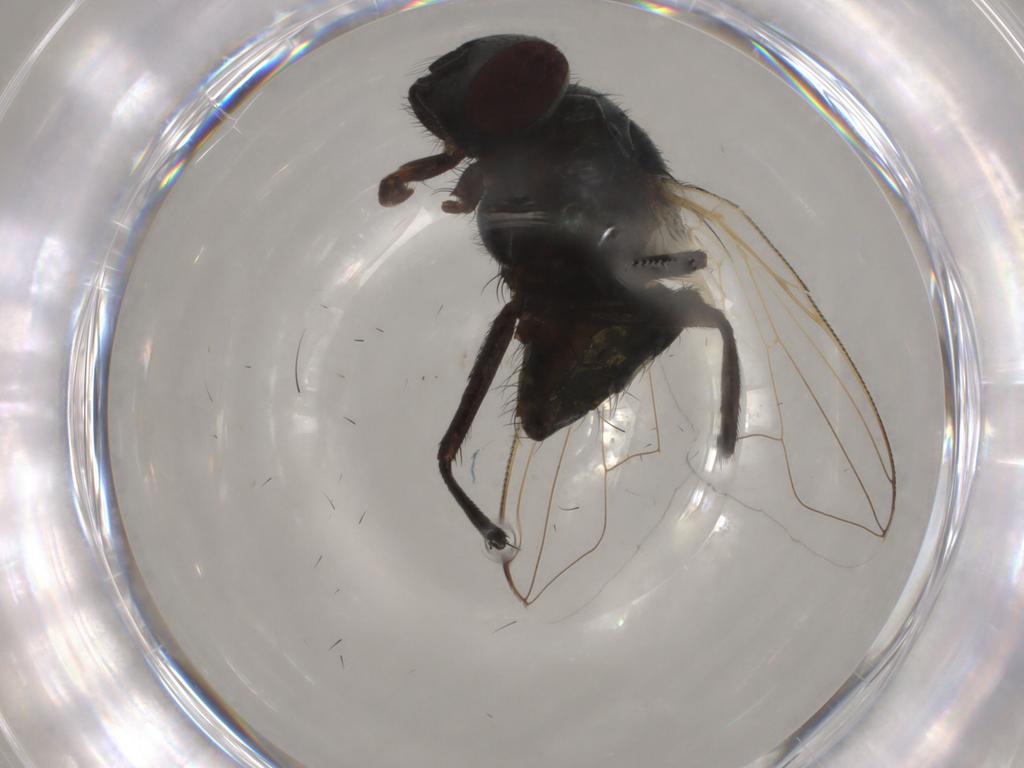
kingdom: Animalia
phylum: Arthropoda
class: Insecta
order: Diptera
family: Muscidae
